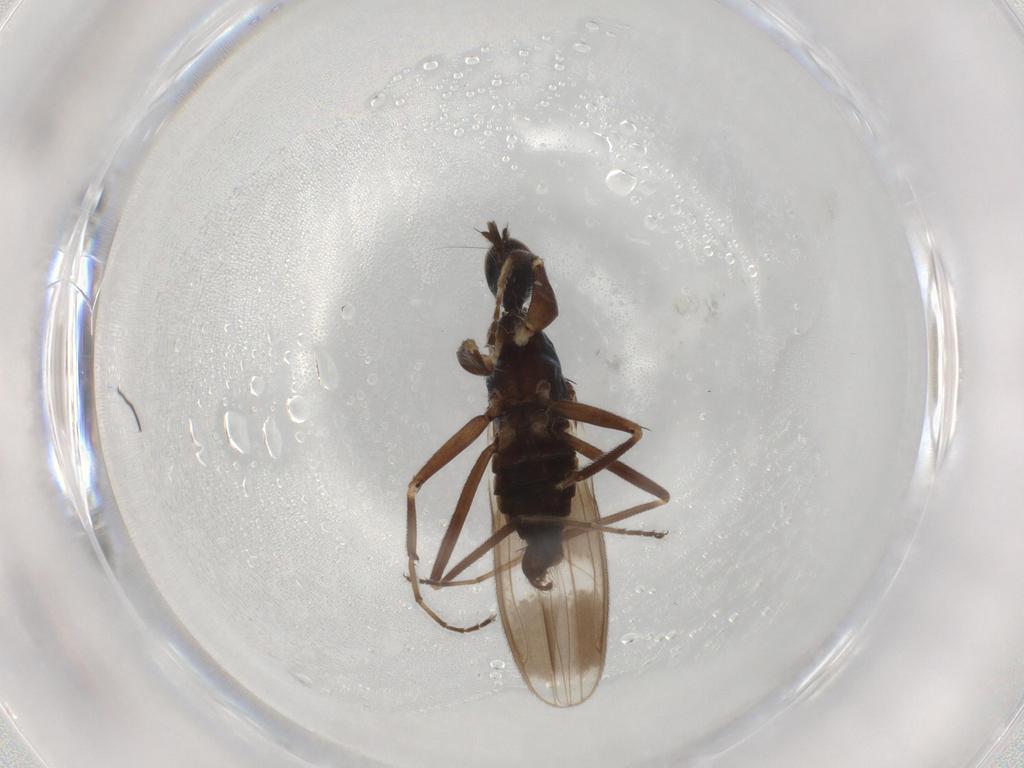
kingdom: Animalia
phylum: Arthropoda
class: Insecta
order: Diptera
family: Hybotidae
